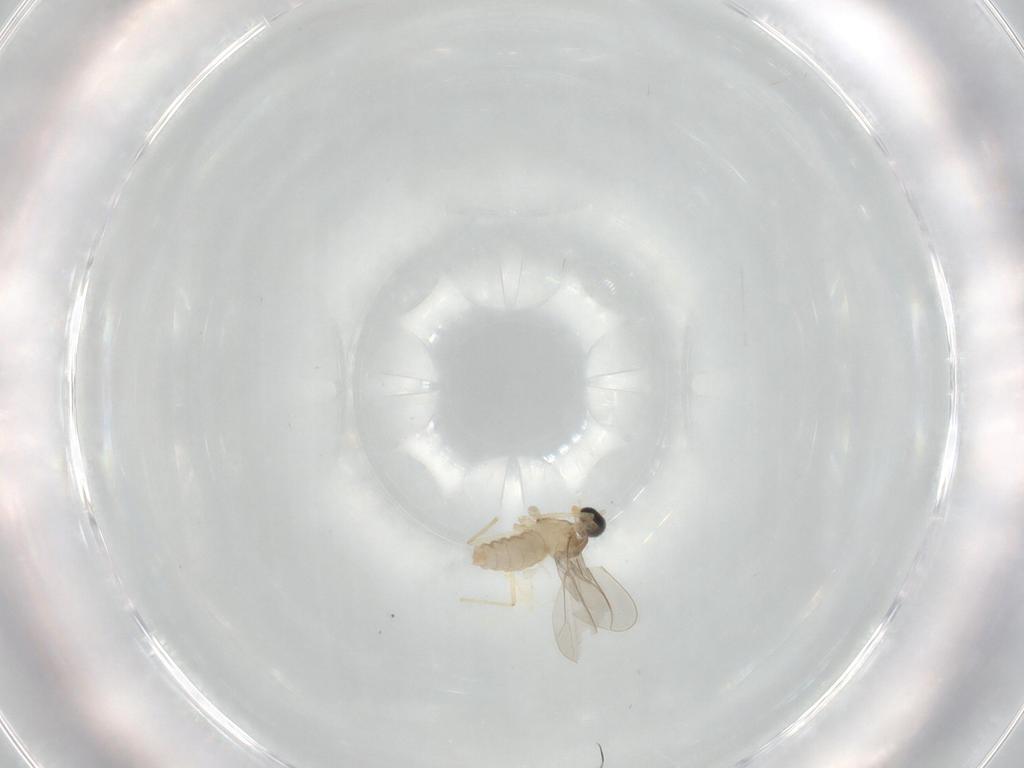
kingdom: Animalia
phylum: Arthropoda
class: Insecta
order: Diptera
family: Cecidomyiidae
